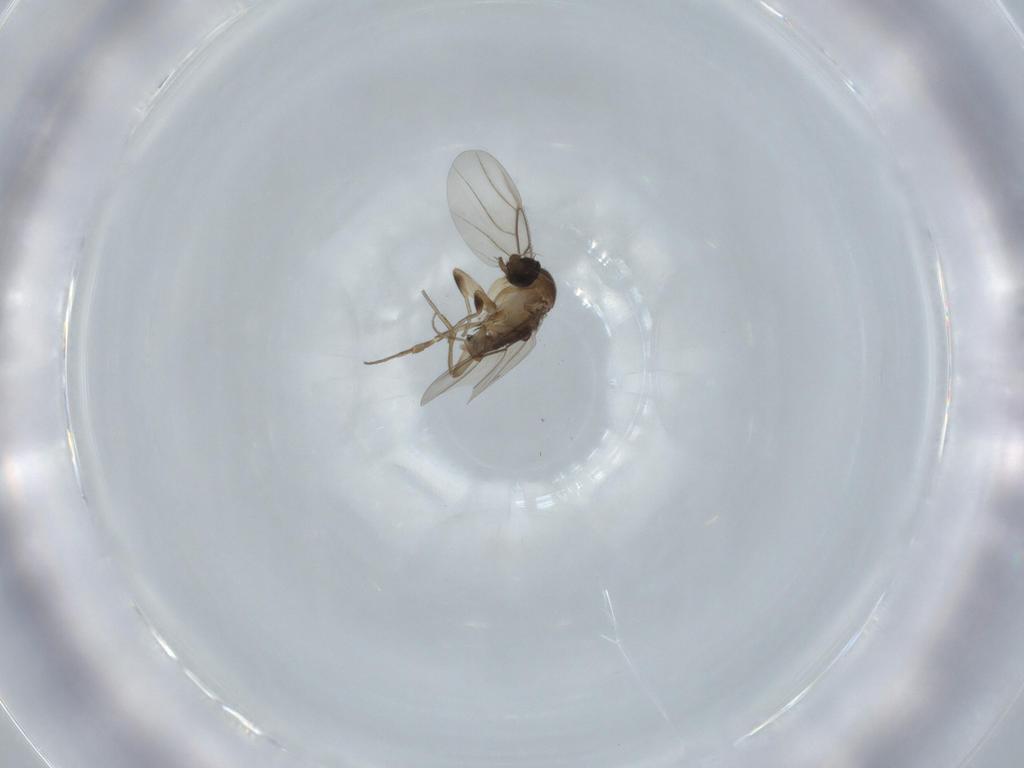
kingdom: Animalia
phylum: Arthropoda
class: Insecta
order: Diptera
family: Phoridae
